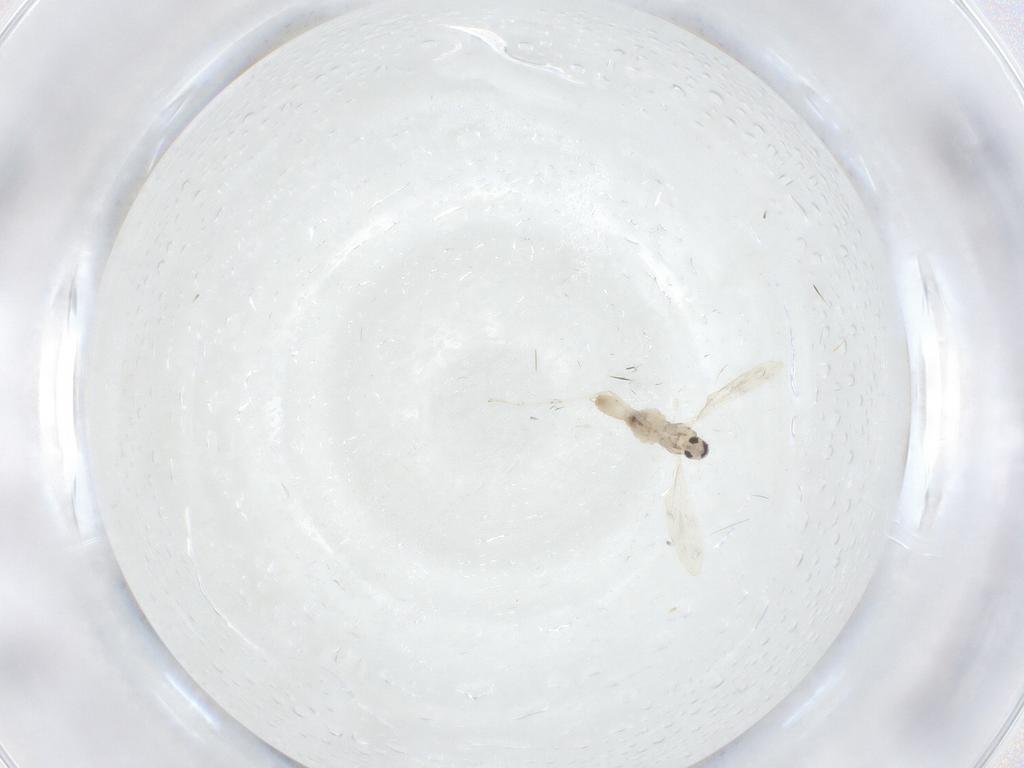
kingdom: Animalia
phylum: Arthropoda
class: Insecta
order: Diptera
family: Cecidomyiidae
